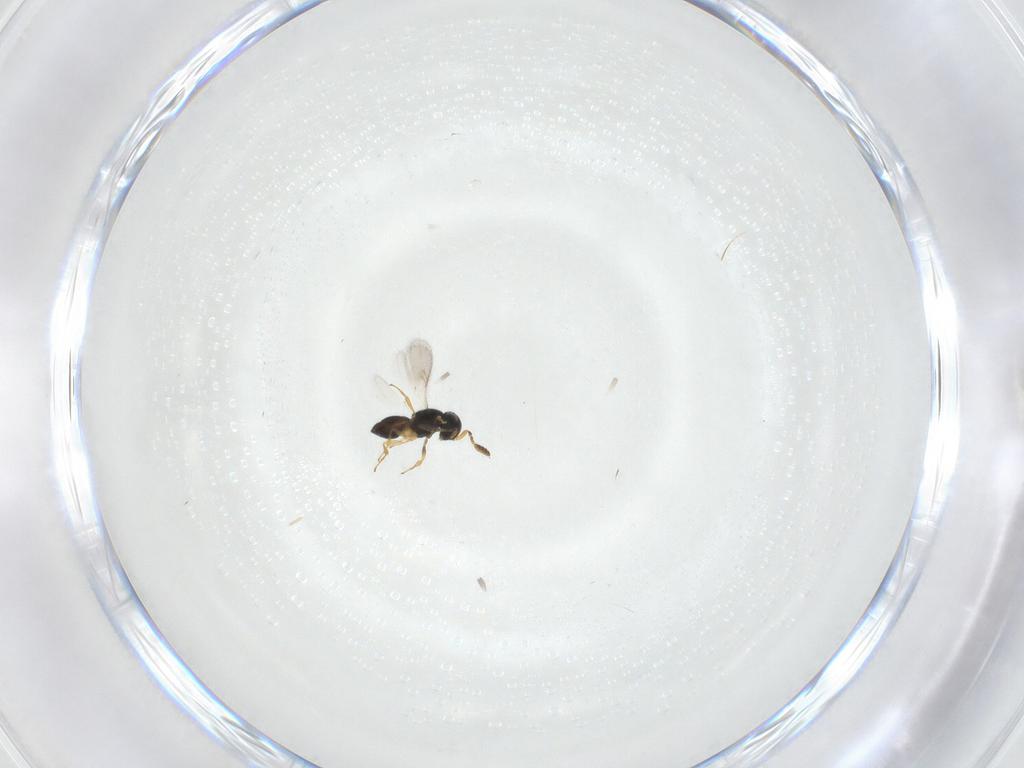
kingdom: Animalia
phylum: Arthropoda
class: Insecta
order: Hymenoptera
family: Scelionidae
